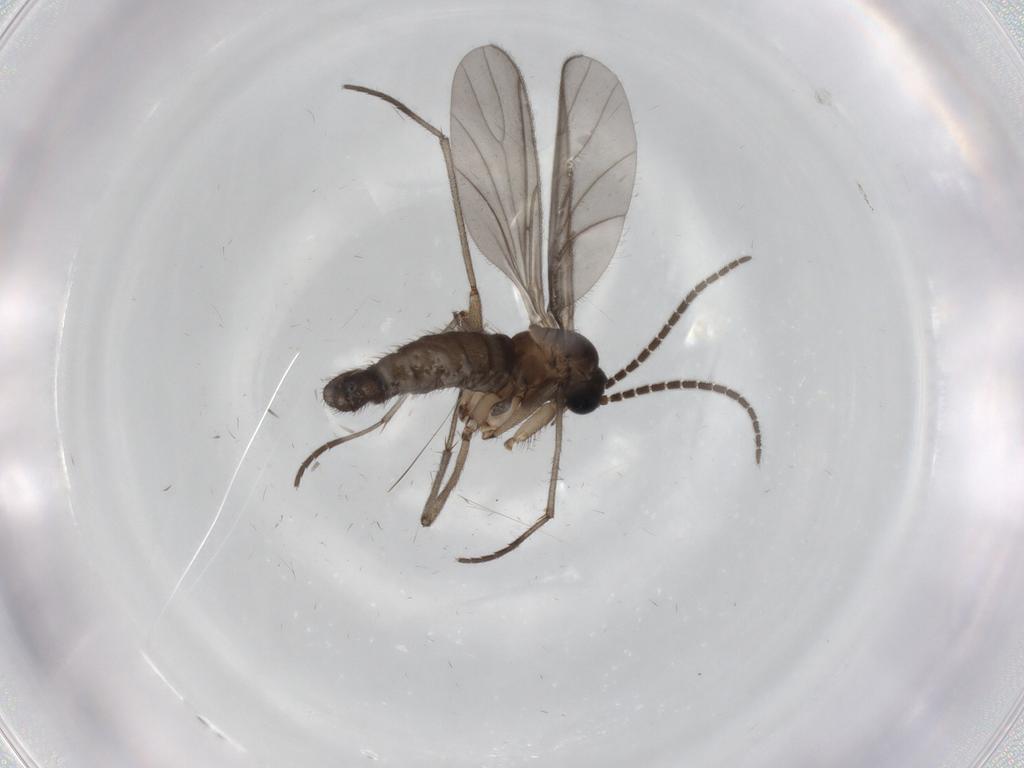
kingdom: Animalia
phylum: Arthropoda
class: Insecta
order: Diptera
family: Sciaridae
